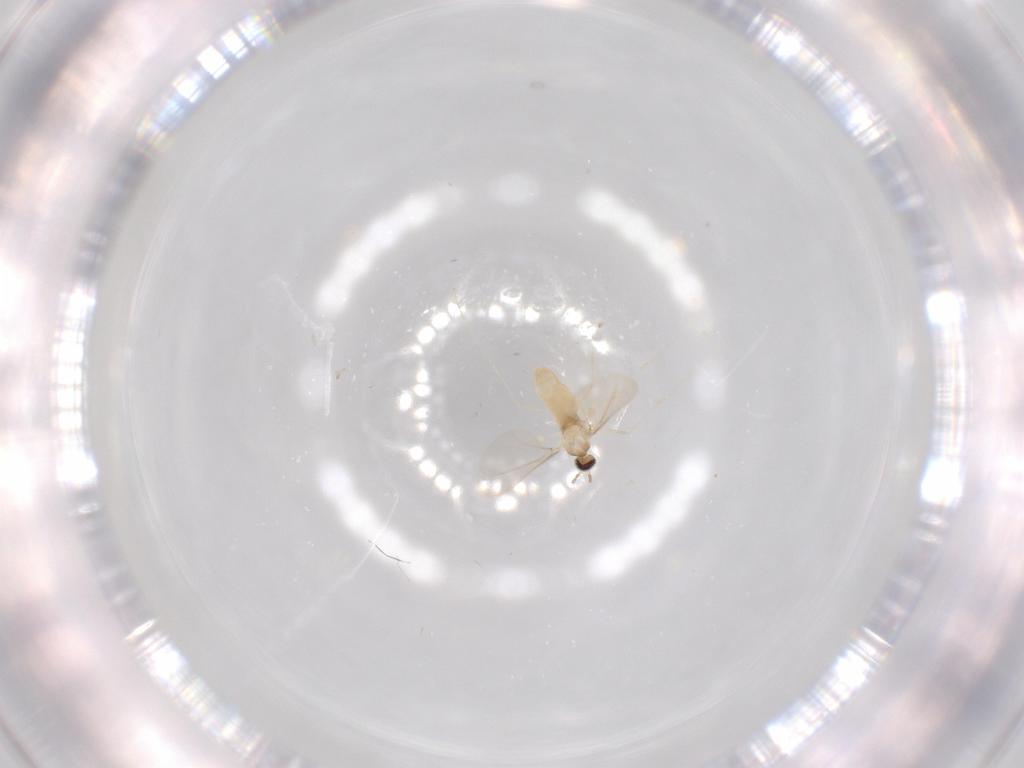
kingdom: Animalia
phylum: Arthropoda
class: Insecta
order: Diptera
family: Cecidomyiidae
